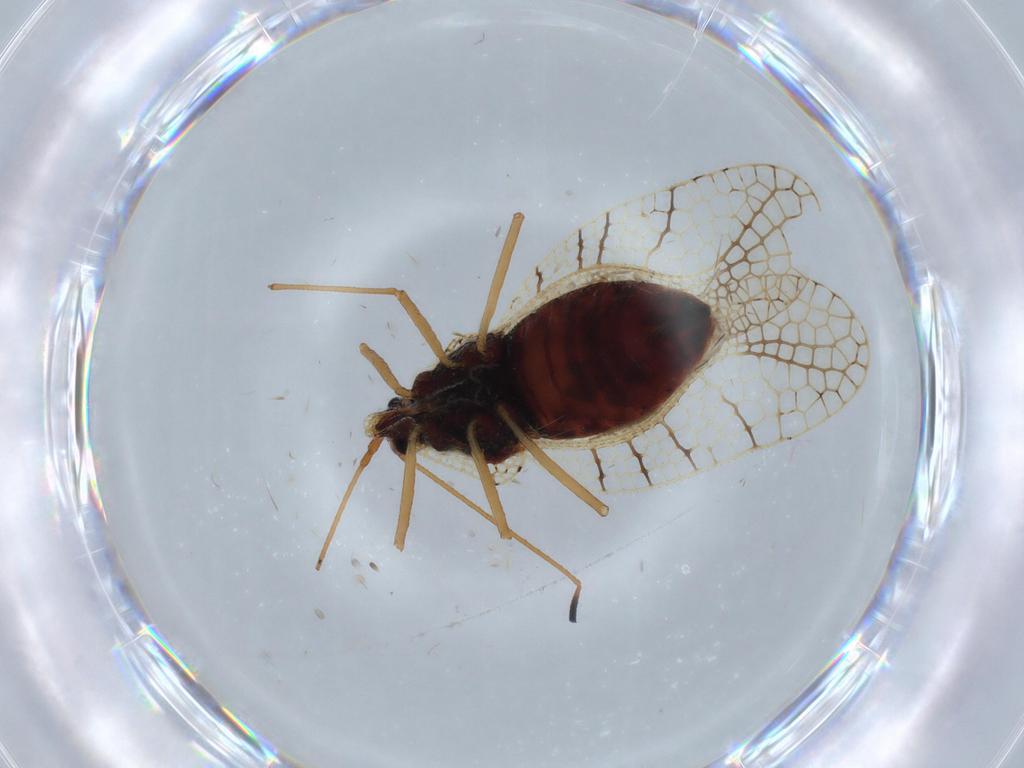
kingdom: Animalia
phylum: Arthropoda
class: Insecta
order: Hemiptera
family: Tingidae
